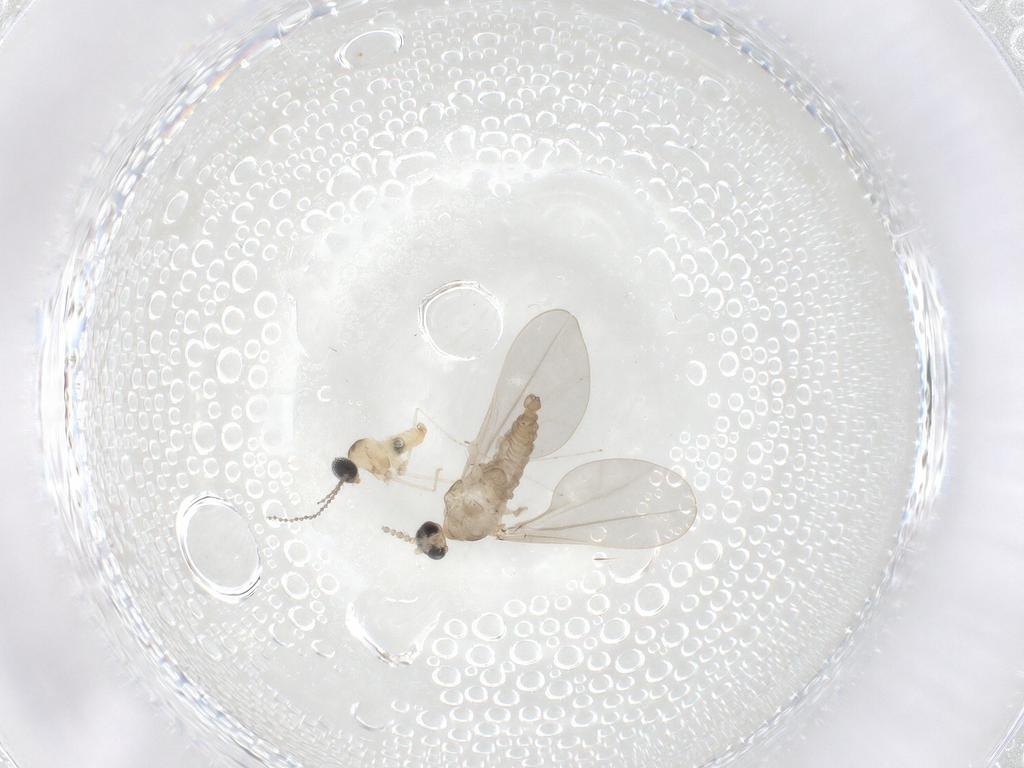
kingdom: Animalia
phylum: Arthropoda
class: Insecta
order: Diptera
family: Cecidomyiidae
